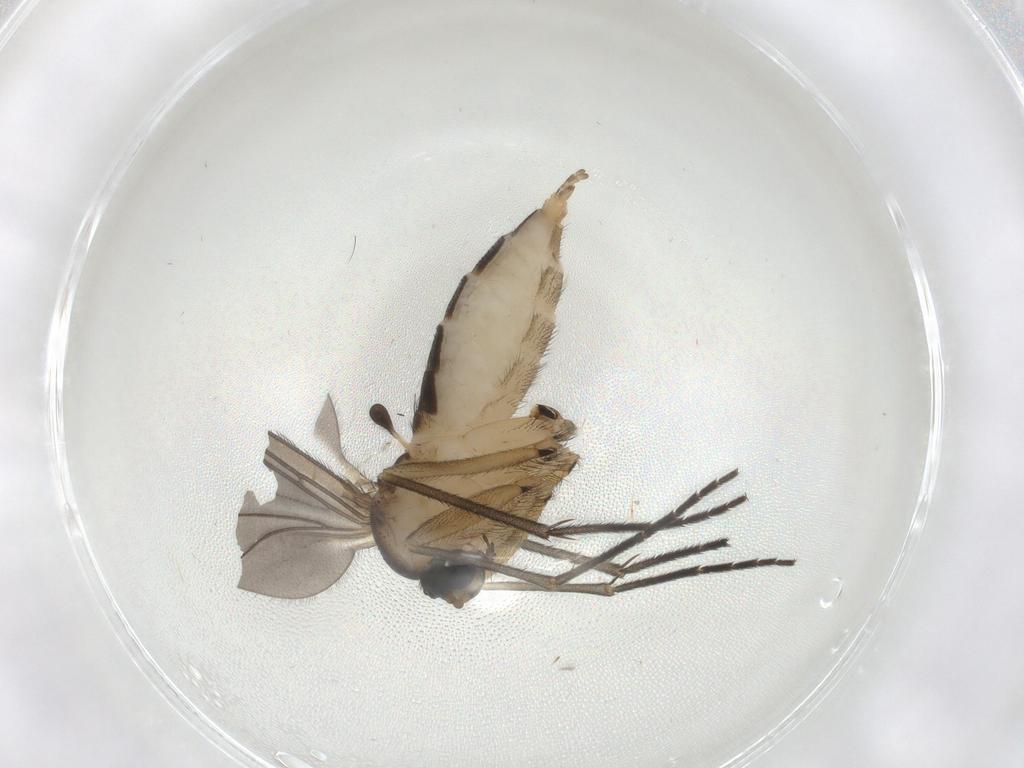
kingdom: Animalia
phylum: Arthropoda
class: Insecta
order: Diptera
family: Sciaridae
